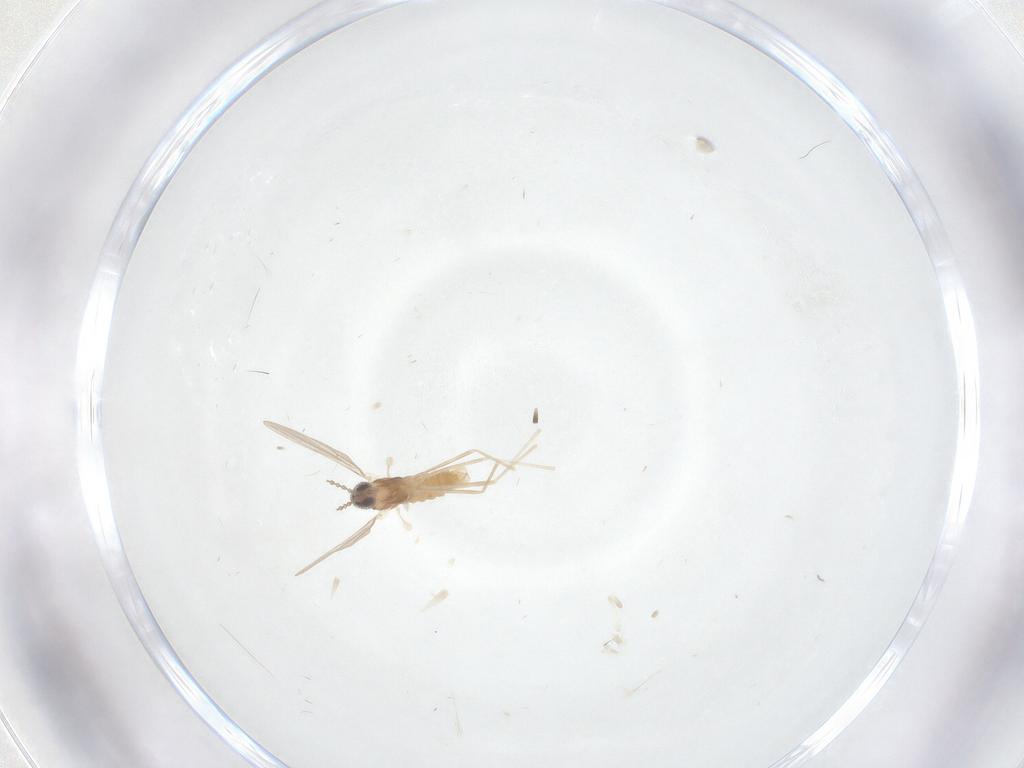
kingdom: Animalia
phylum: Arthropoda
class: Insecta
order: Diptera
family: Cecidomyiidae
